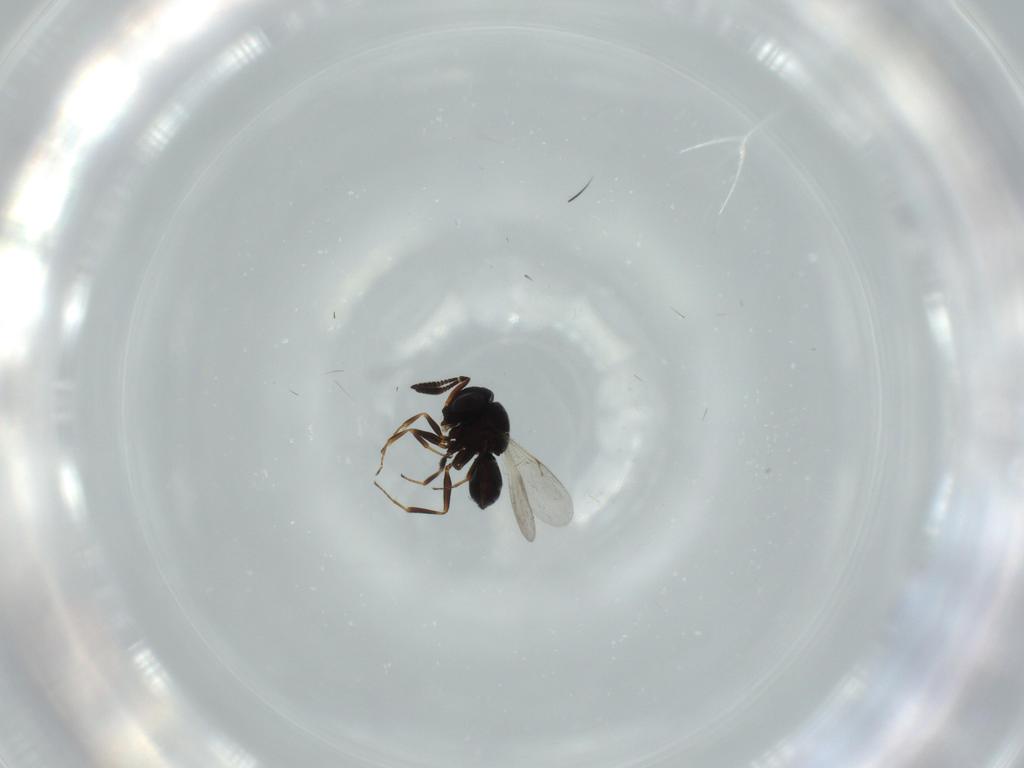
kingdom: Animalia
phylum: Arthropoda
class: Insecta
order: Hymenoptera
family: Scelionidae
